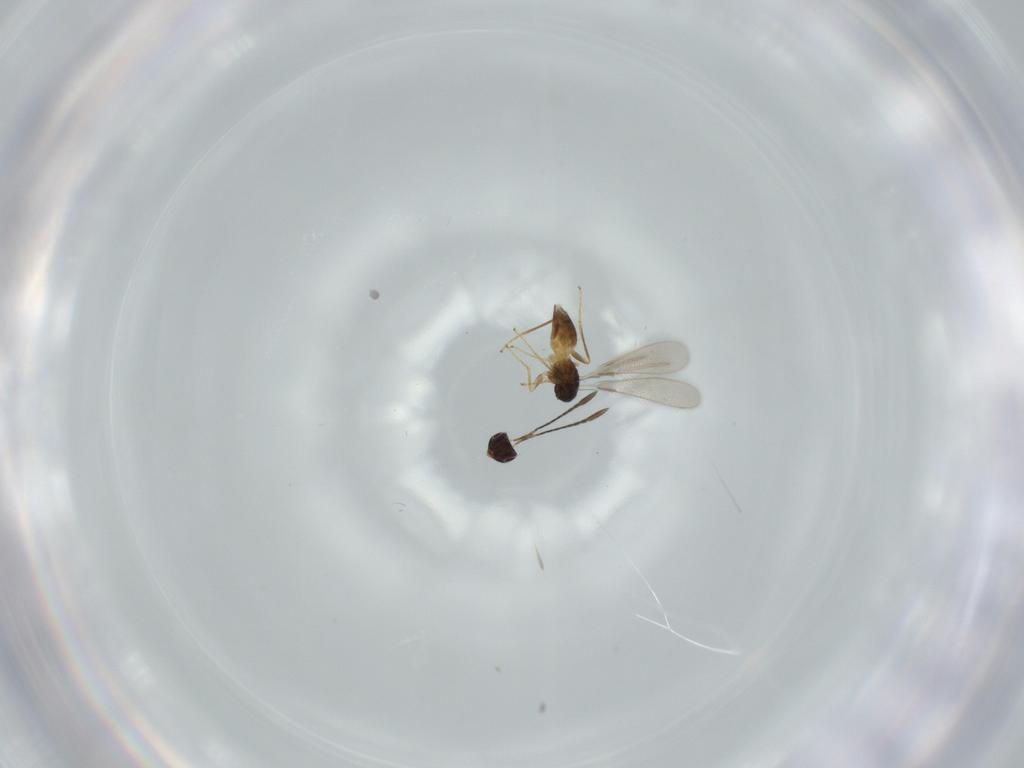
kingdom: Animalia
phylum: Arthropoda
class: Insecta
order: Hymenoptera
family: Mymaridae
